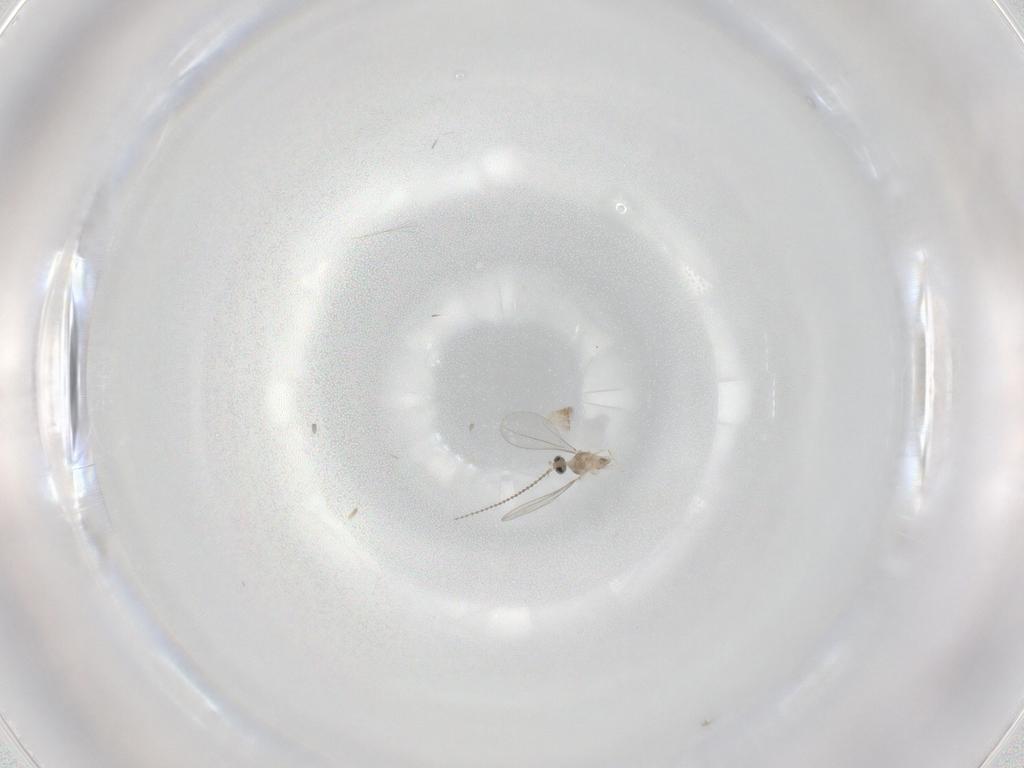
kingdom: Animalia
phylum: Arthropoda
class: Insecta
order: Diptera
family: Cecidomyiidae
